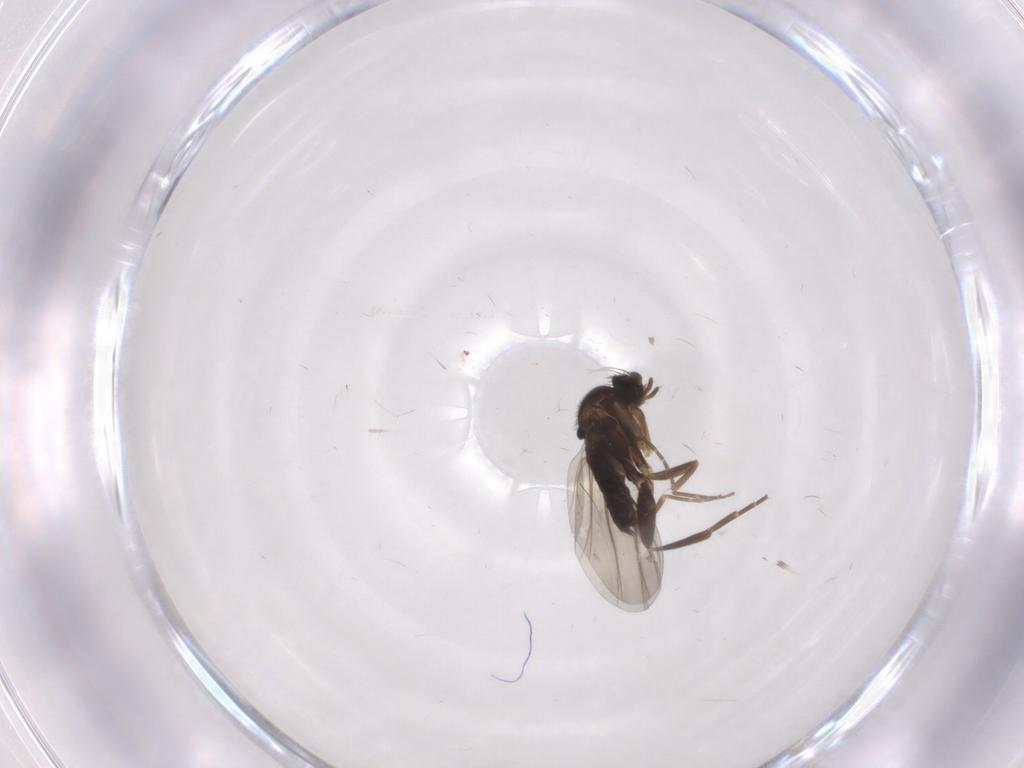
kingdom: Animalia
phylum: Arthropoda
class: Insecta
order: Diptera
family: Phoridae
